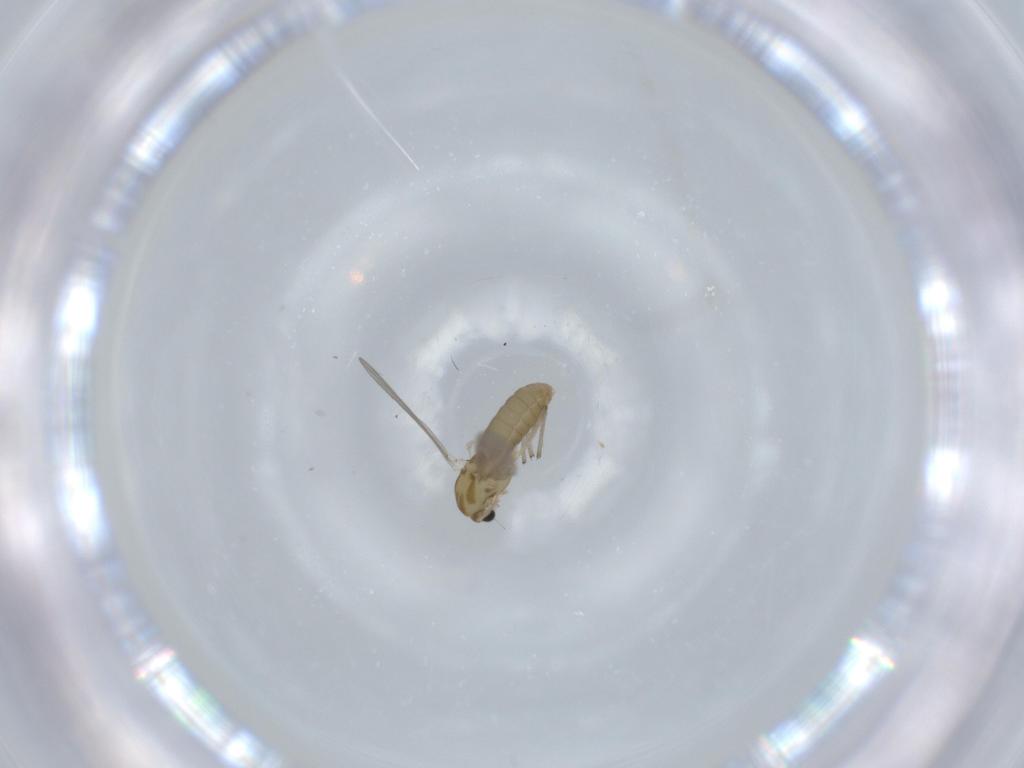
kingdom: Animalia
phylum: Arthropoda
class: Insecta
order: Diptera
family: Chironomidae
